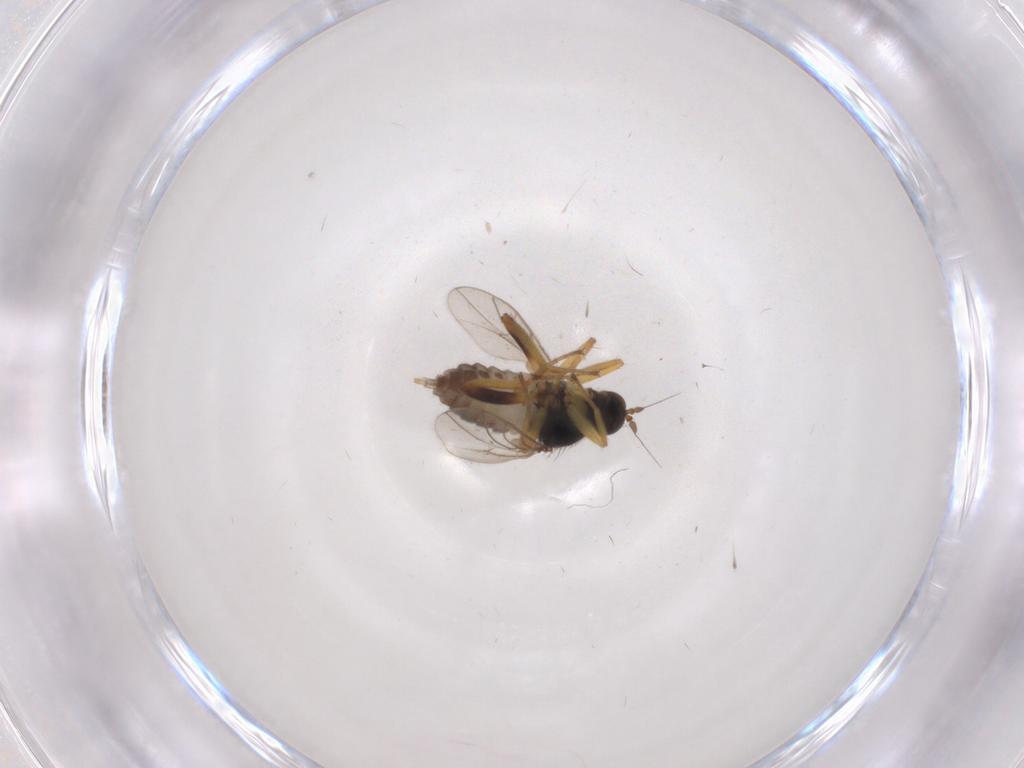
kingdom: Animalia
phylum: Arthropoda
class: Insecta
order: Diptera
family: Hybotidae
